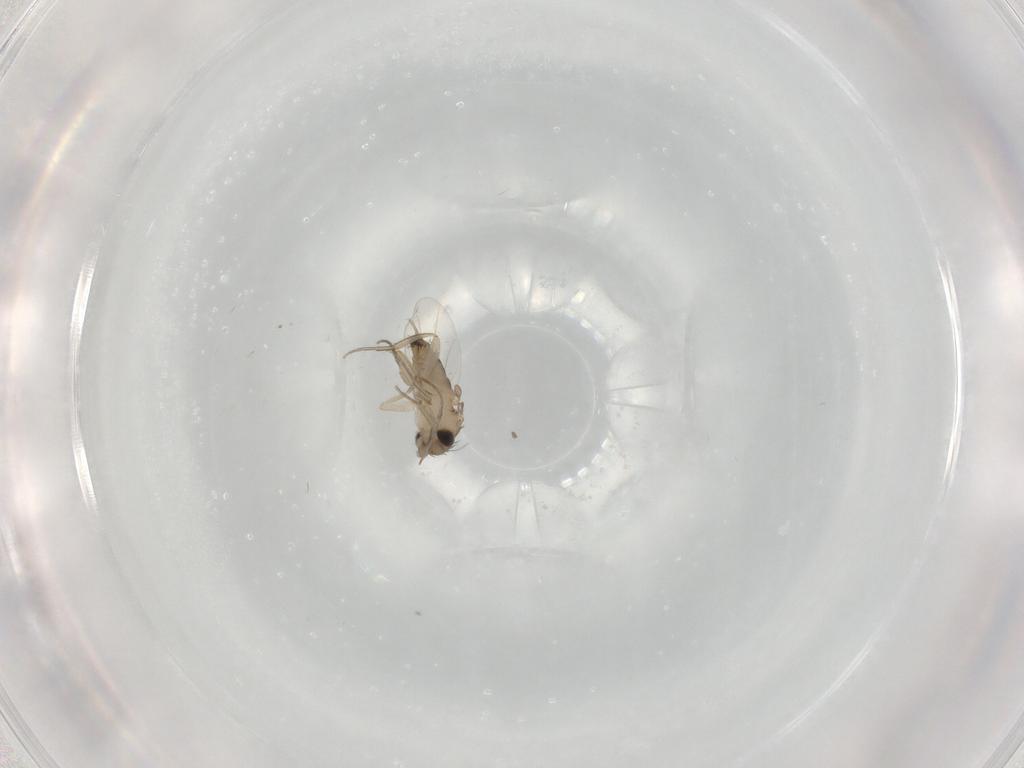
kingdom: Animalia
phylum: Arthropoda
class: Insecta
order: Diptera
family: Phoridae
